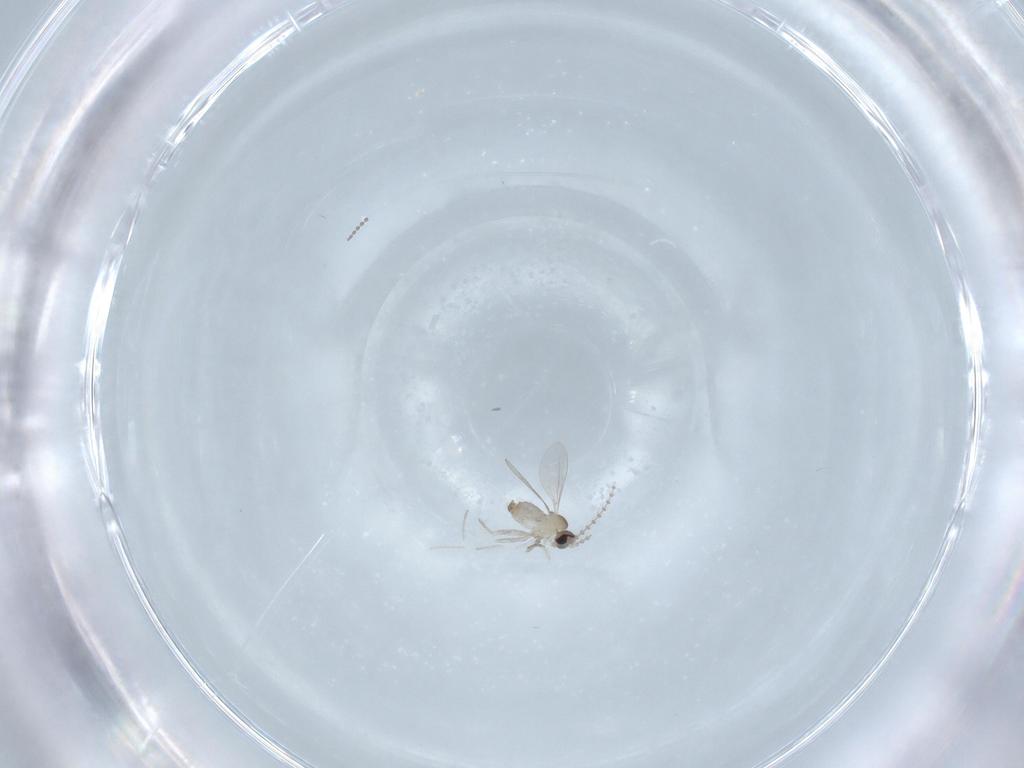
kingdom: Animalia
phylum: Arthropoda
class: Insecta
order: Diptera
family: Cecidomyiidae
